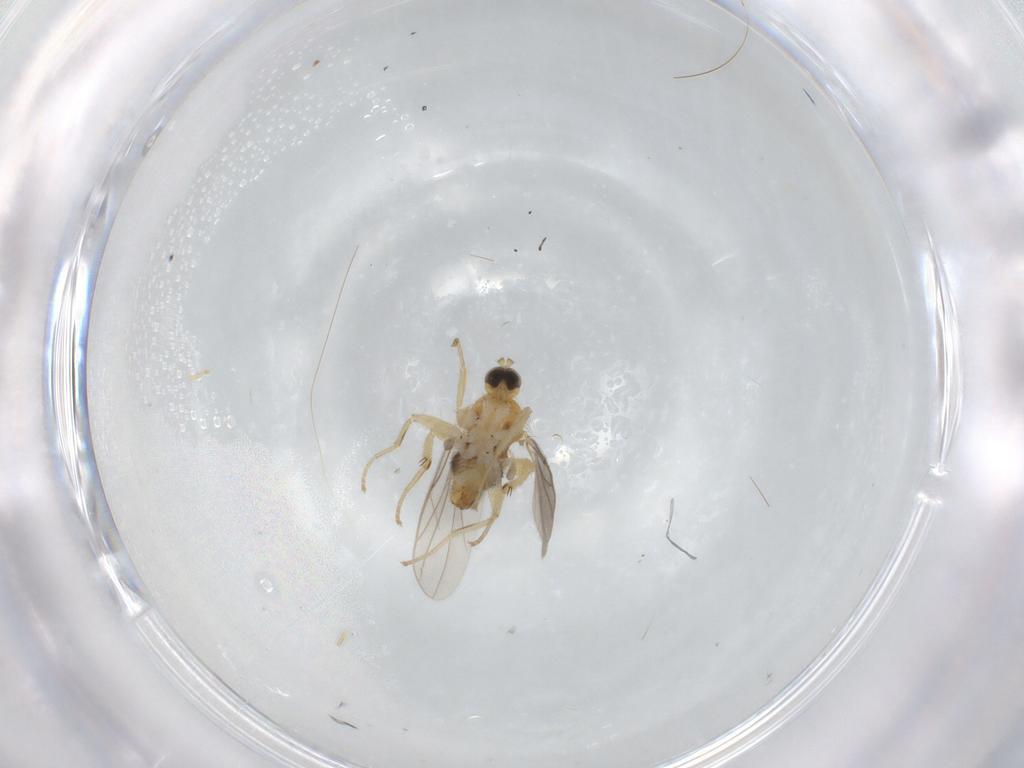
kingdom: Animalia
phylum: Arthropoda
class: Insecta
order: Diptera
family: Hybotidae
